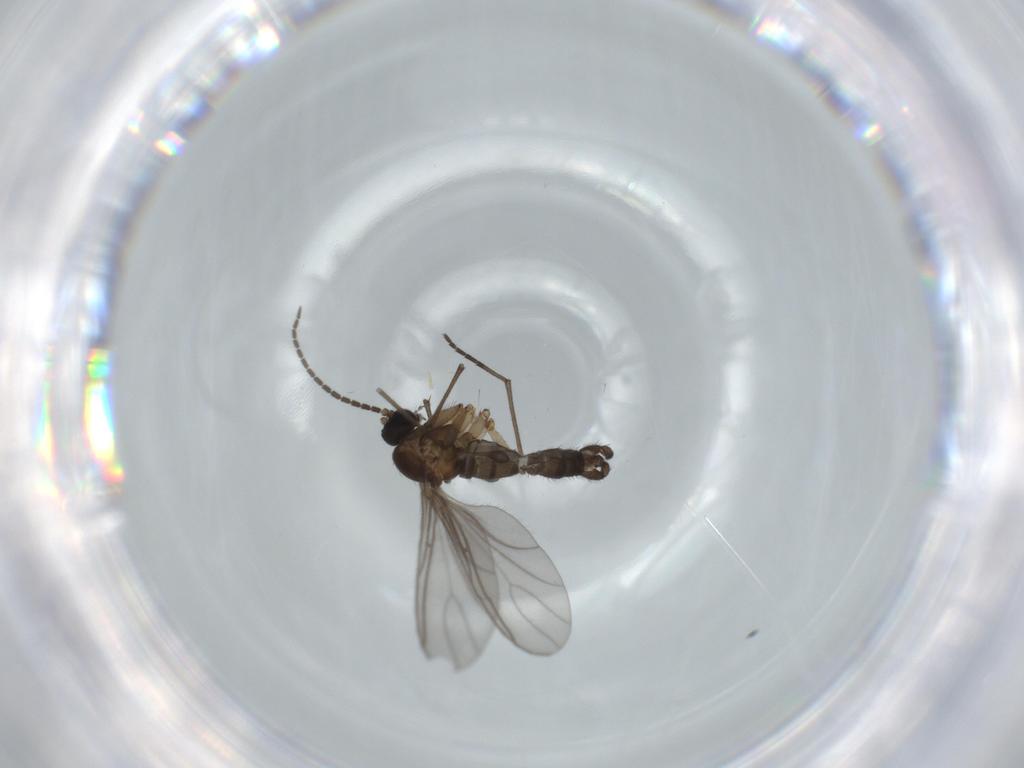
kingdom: Animalia
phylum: Arthropoda
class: Insecta
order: Diptera
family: Sciaridae
